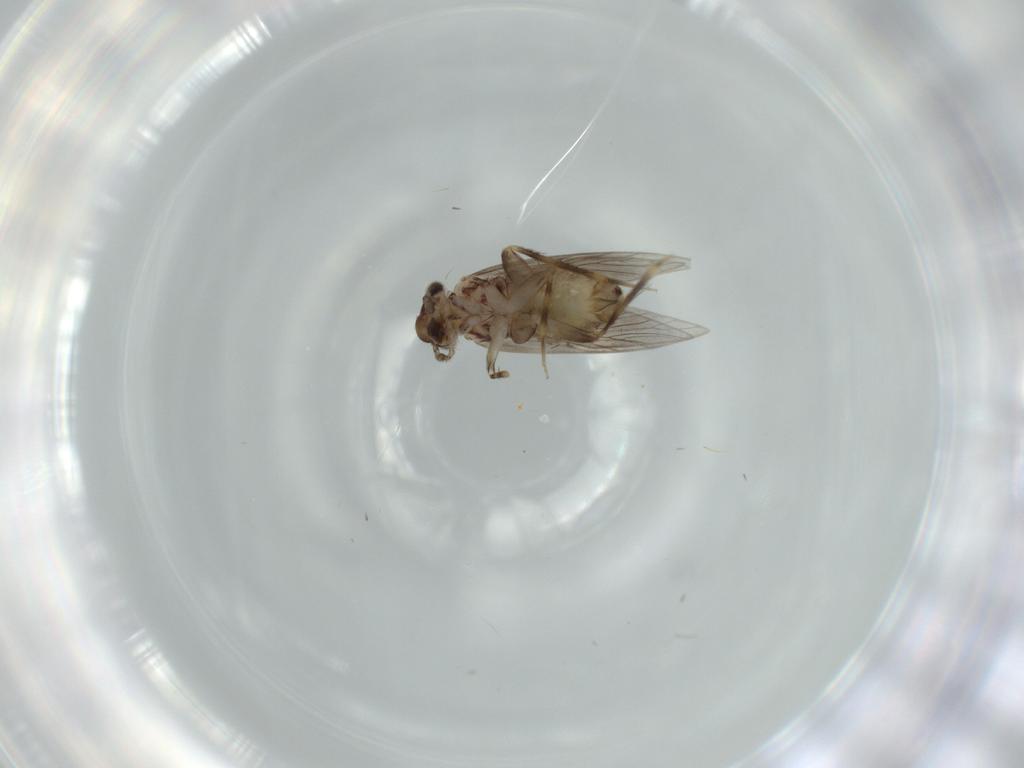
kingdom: Animalia
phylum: Arthropoda
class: Insecta
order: Psocodea
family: Lepidopsocidae
